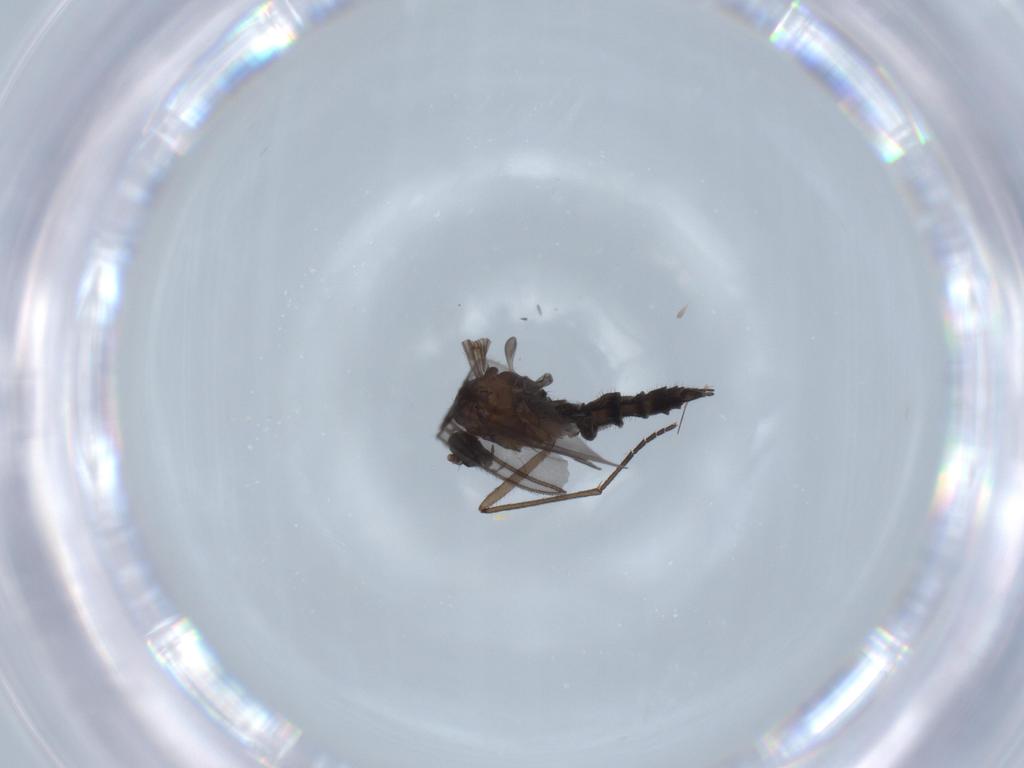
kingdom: Animalia
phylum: Arthropoda
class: Insecta
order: Diptera
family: Sciaridae
